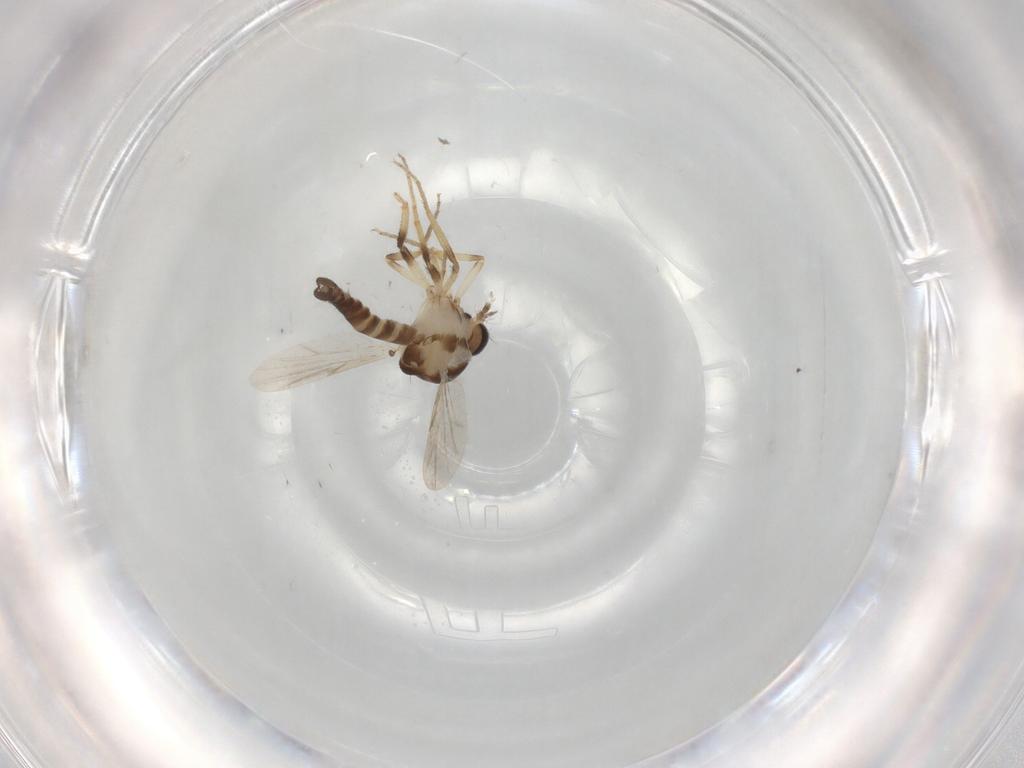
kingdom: Animalia
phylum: Arthropoda
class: Insecta
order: Diptera
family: Ceratopogonidae
